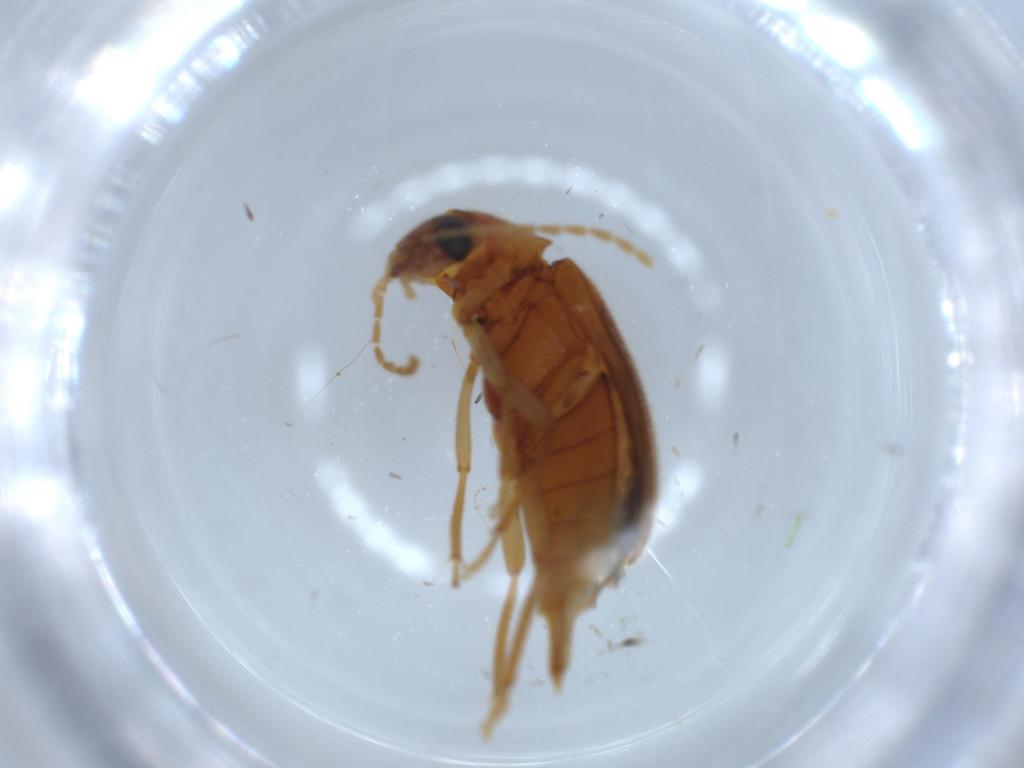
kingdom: Animalia
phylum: Arthropoda
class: Insecta
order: Coleoptera
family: Ptilodactylidae
